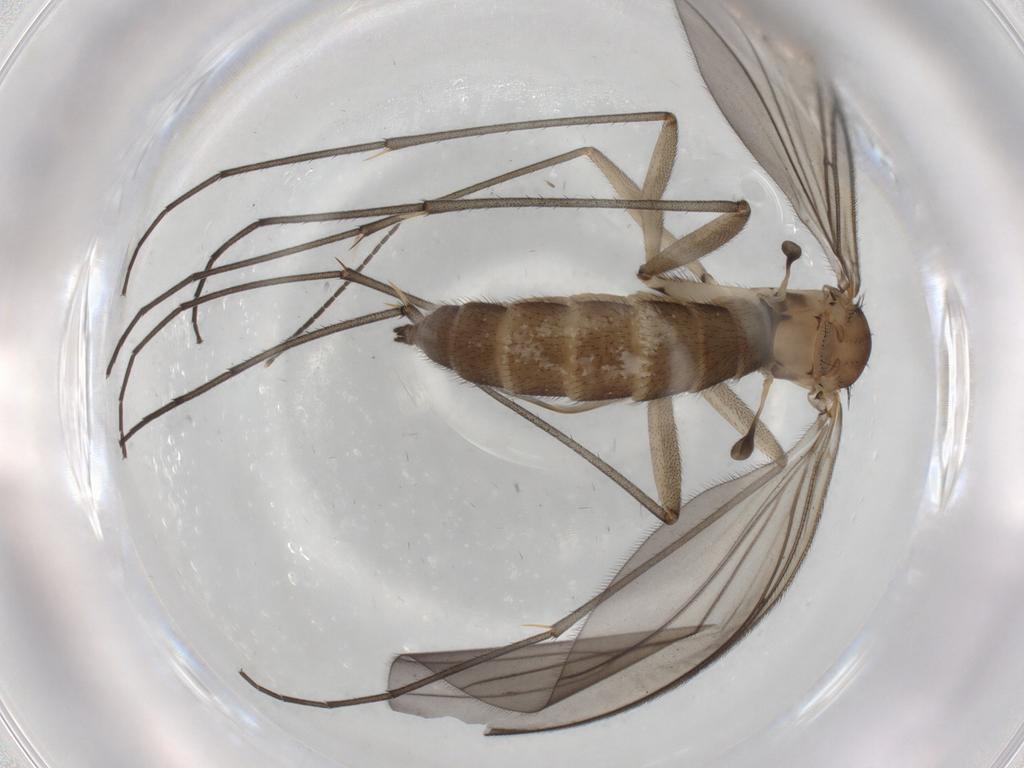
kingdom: Animalia
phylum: Arthropoda
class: Insecta
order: Diptera
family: Sciaridae
